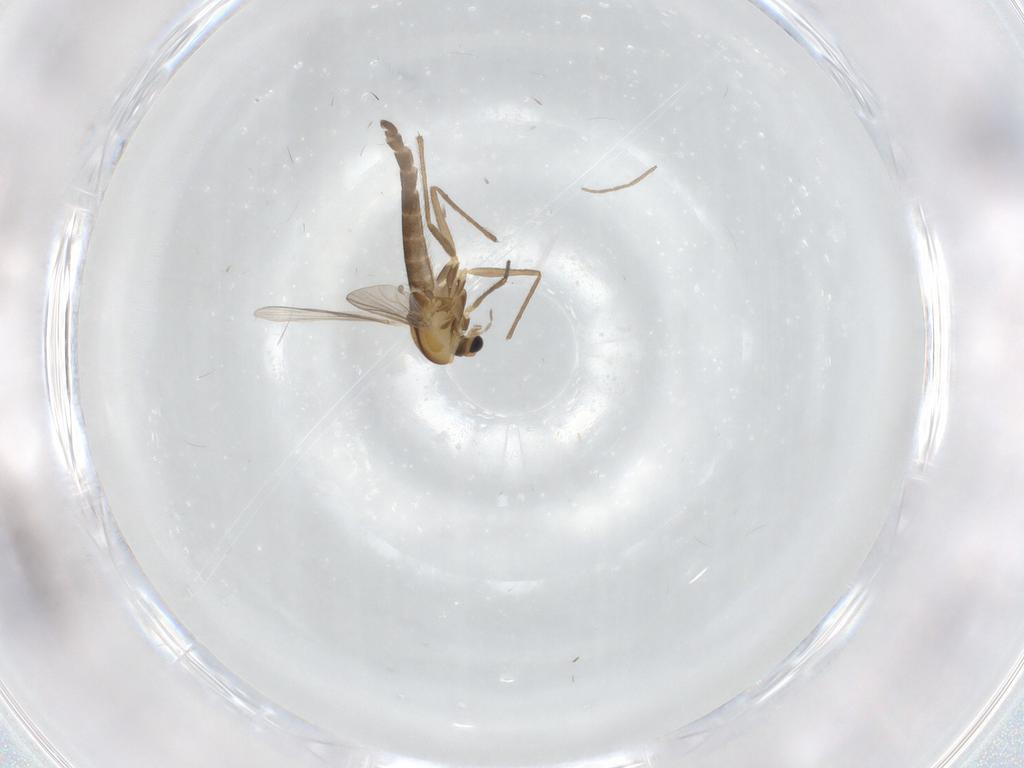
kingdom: Animalia
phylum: Arthropoda
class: Insecta
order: Diptera
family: Chironomidae
